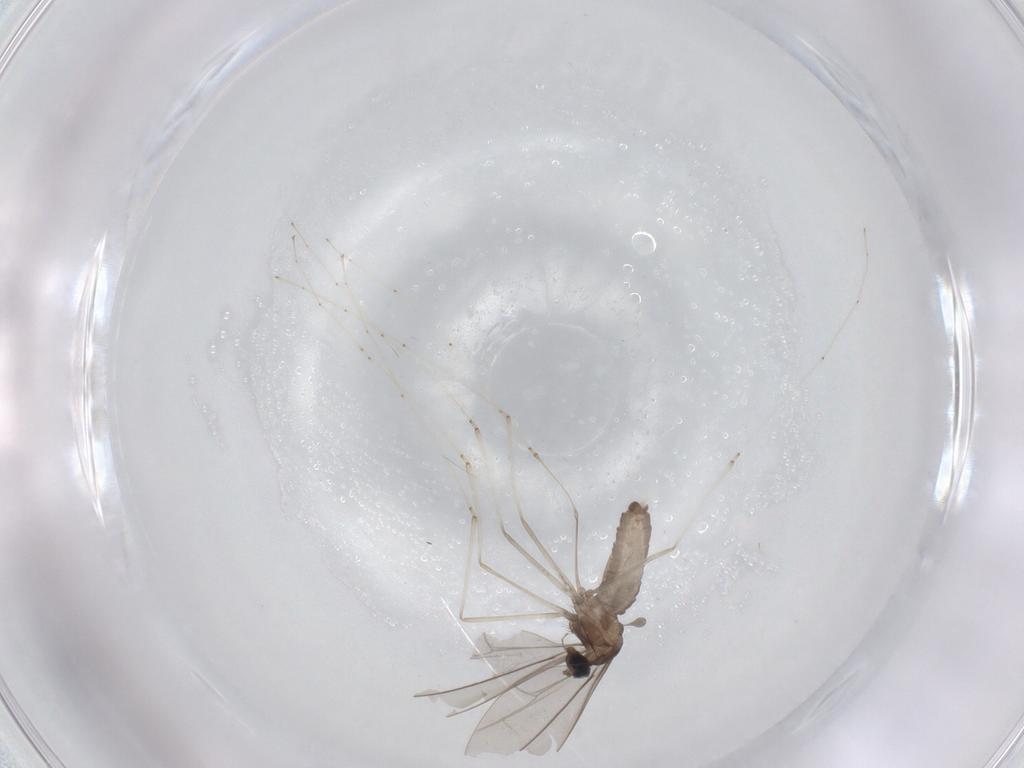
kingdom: Animalia
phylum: Arthropoda
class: Insecta
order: Diptera
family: Cecidomyiidae
